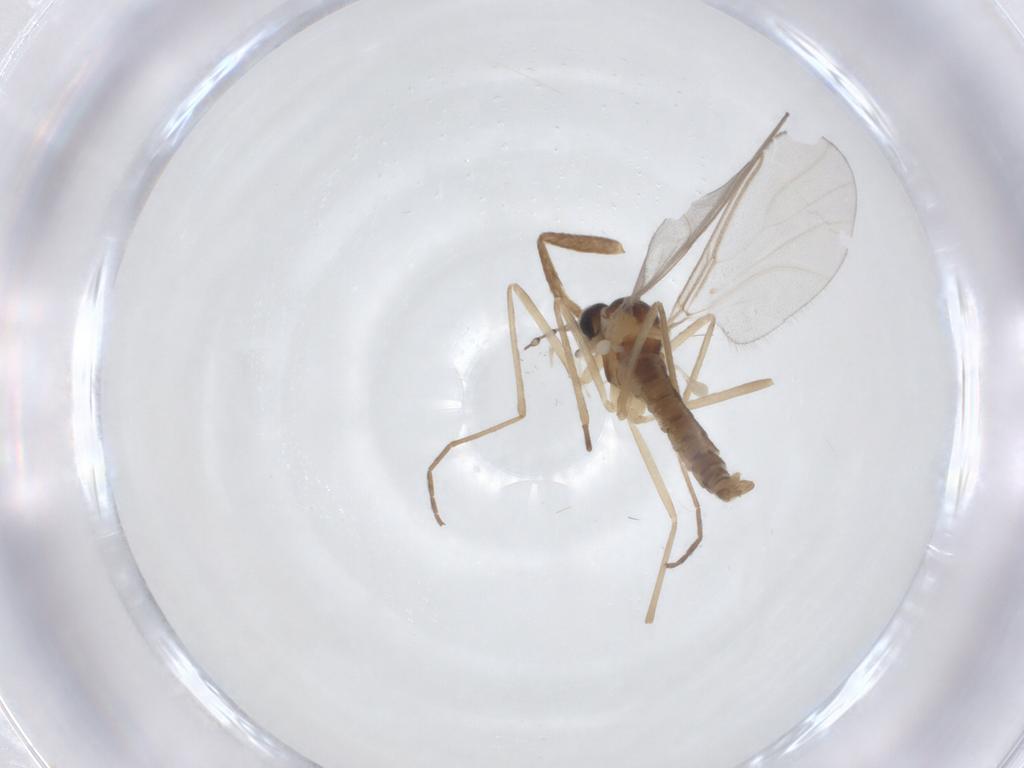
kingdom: Animalia
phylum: Arthropoda
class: Insecta
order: Diptera
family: Cecidomyiidae
